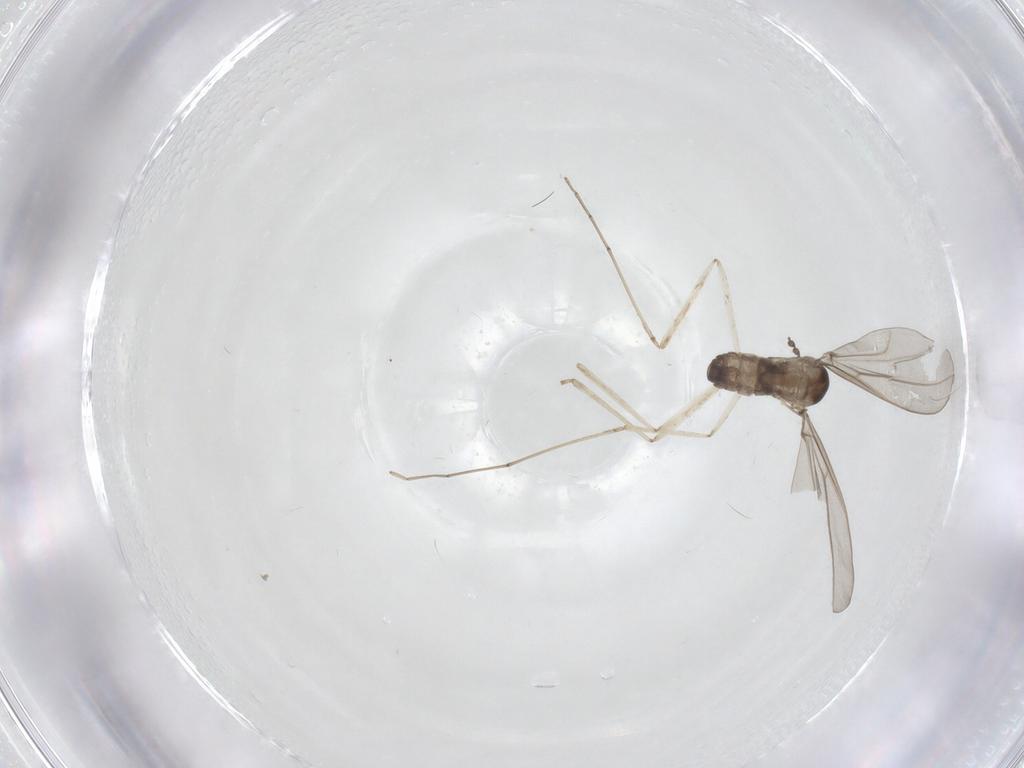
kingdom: Animalia
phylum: Arthropoda
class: Insecta
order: Diptera
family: Cecidomyiidae
